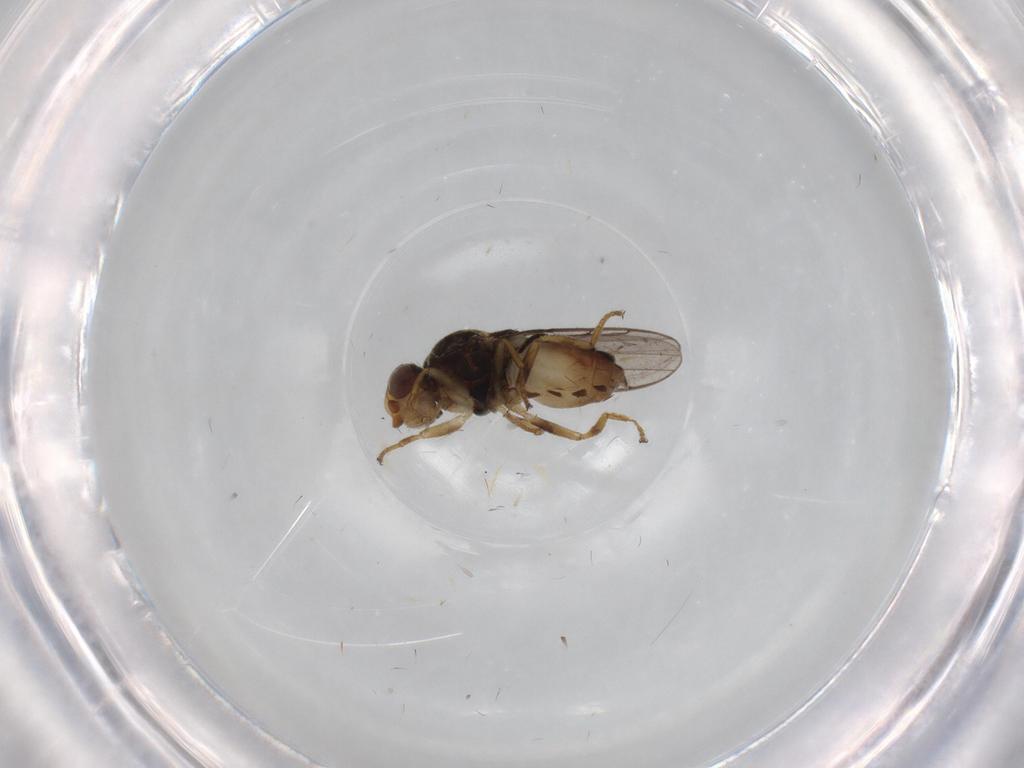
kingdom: Animalia
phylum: Arthropoda
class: Insecta
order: Diptera
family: Chloropidae
